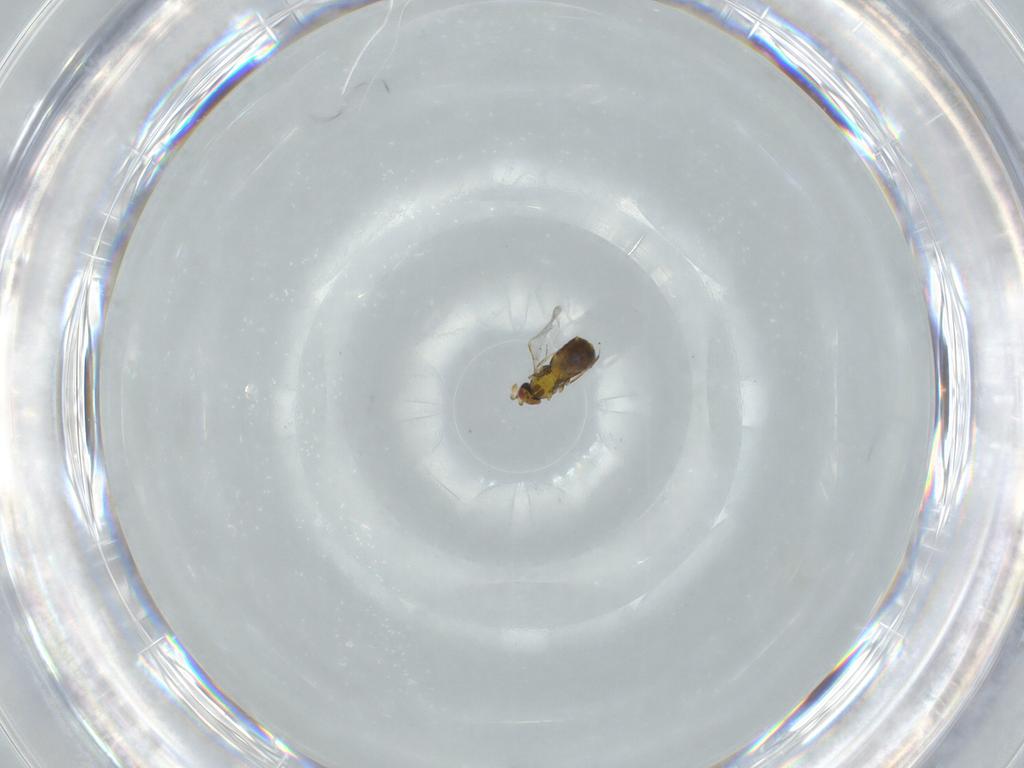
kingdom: Animalia
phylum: Arthropoda
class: Insecta
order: Hymenoptera
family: Trichogrammatidae
